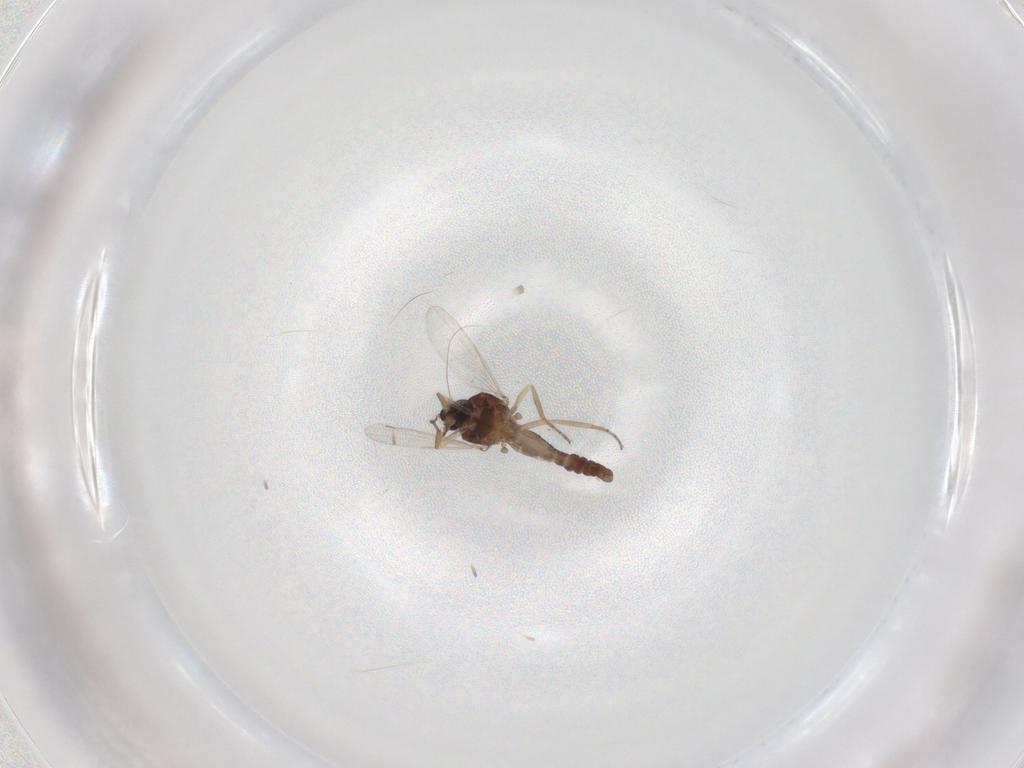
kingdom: Animalia
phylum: Arthropoda
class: Insecta
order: Diptera
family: Ceratopogonidae
